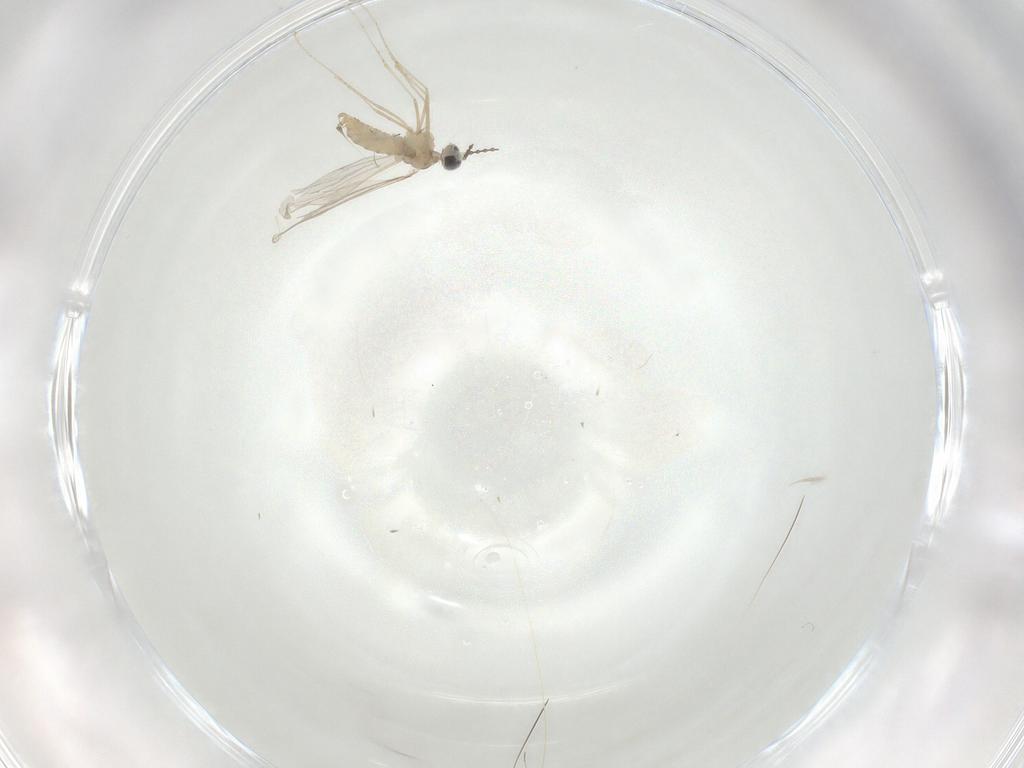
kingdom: Animalia
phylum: Arthropoda
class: Insecta
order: Diptera
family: Cecidomyiidae
